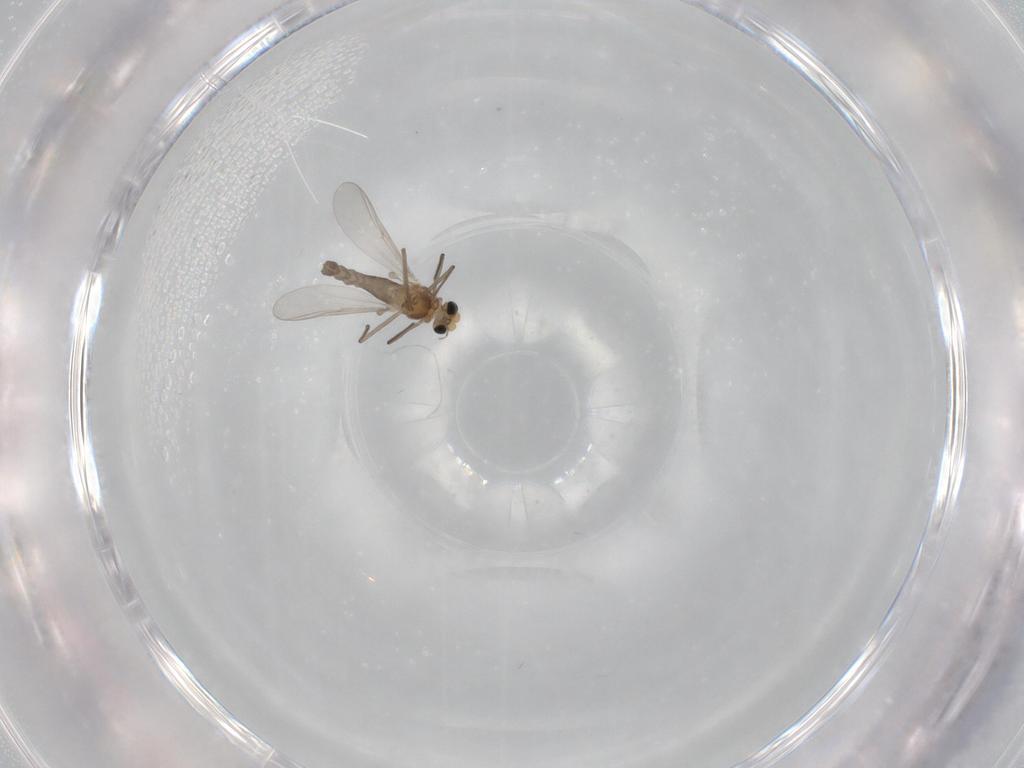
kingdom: Animalia
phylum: Arthropoda
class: Insecta
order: Diptera
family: Chironomidae
